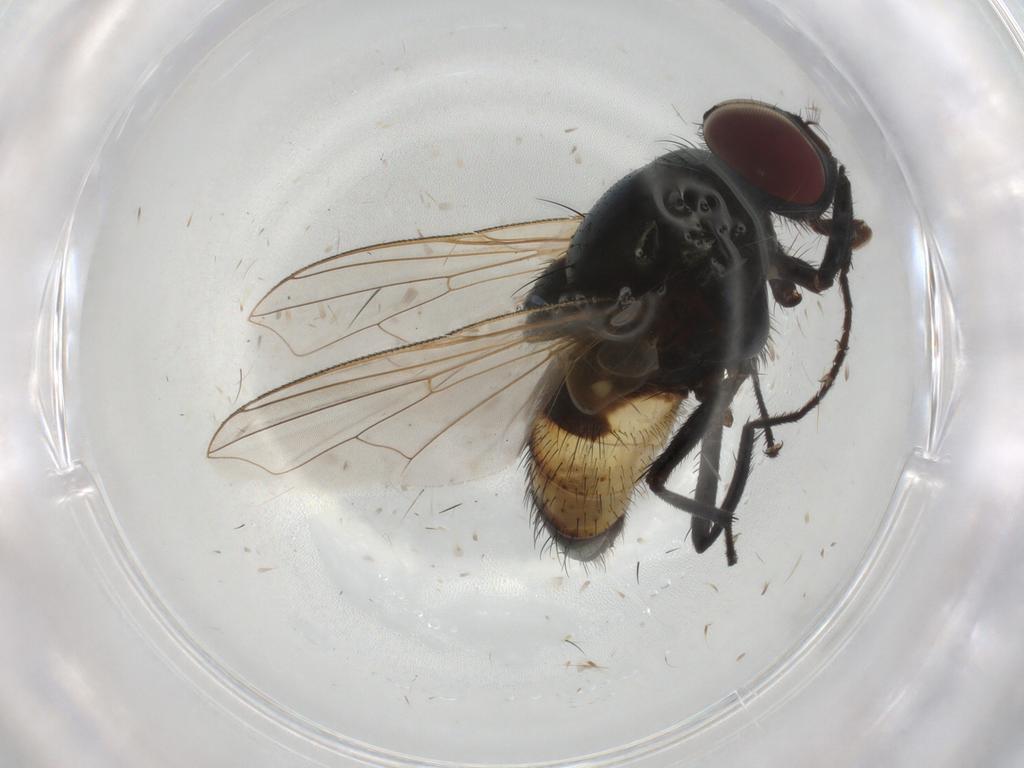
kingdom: Animalia
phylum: Arthropoda
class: Insecta
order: Diptera
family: Muscidae
